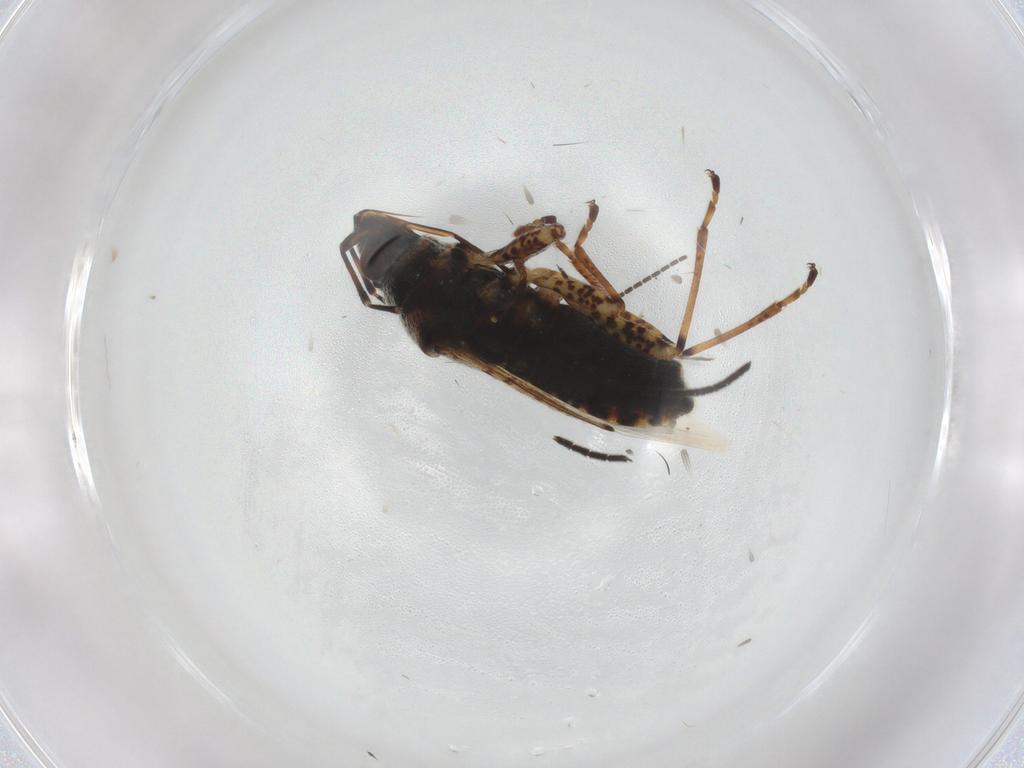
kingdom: Animalia
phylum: Arthropoda
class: Insecta
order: Hemiptera
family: Lygaeidae
